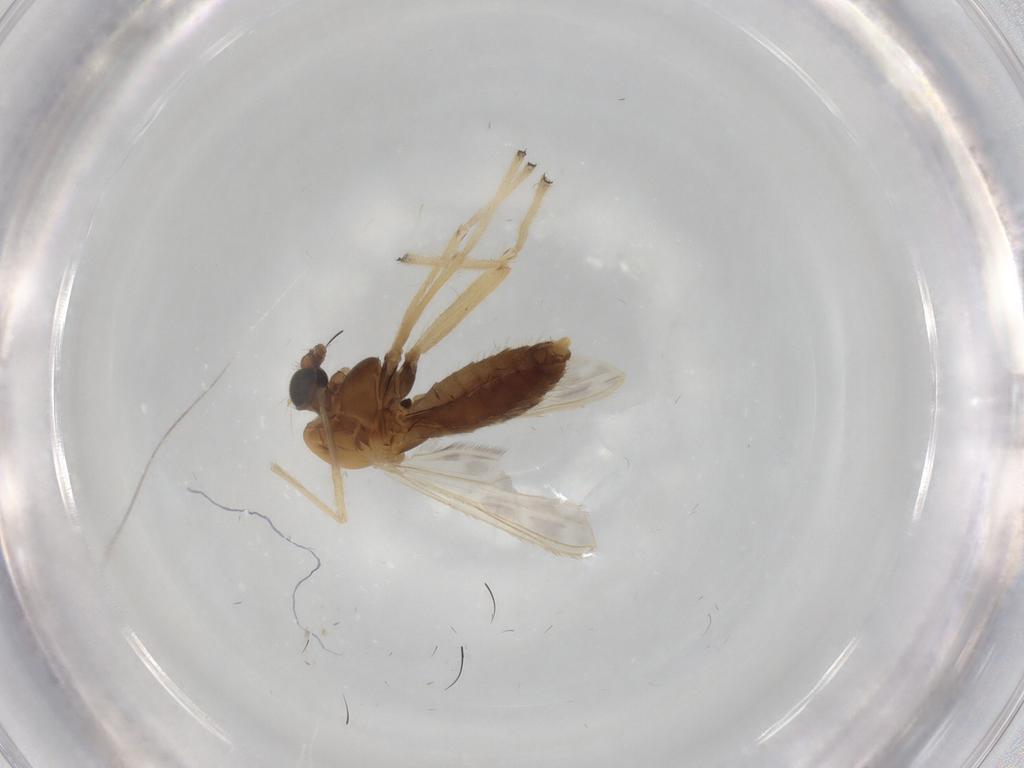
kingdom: Animalia
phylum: Arthropoda
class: Insecta
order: Diptera
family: Chironomidae
